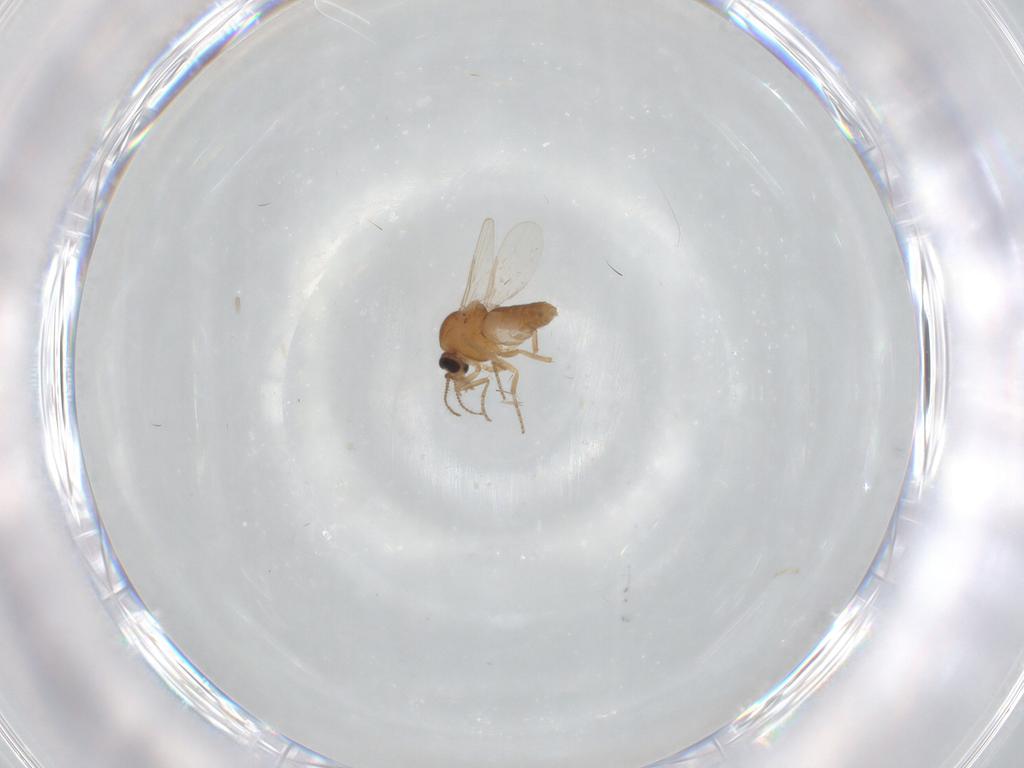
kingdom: Animalia
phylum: Arthropoda
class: Insecta
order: Diptera
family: Ceratopogonidae
